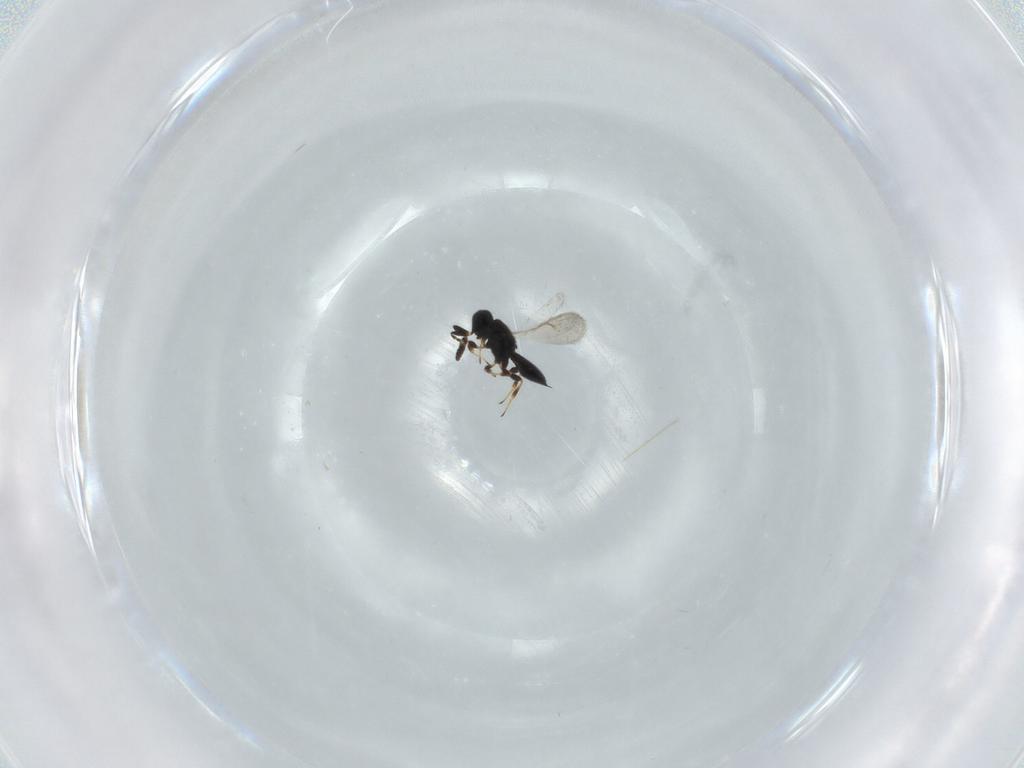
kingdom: Animalia
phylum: Arthropoda
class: Insecta
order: Hymenoptera
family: Scelionidae
